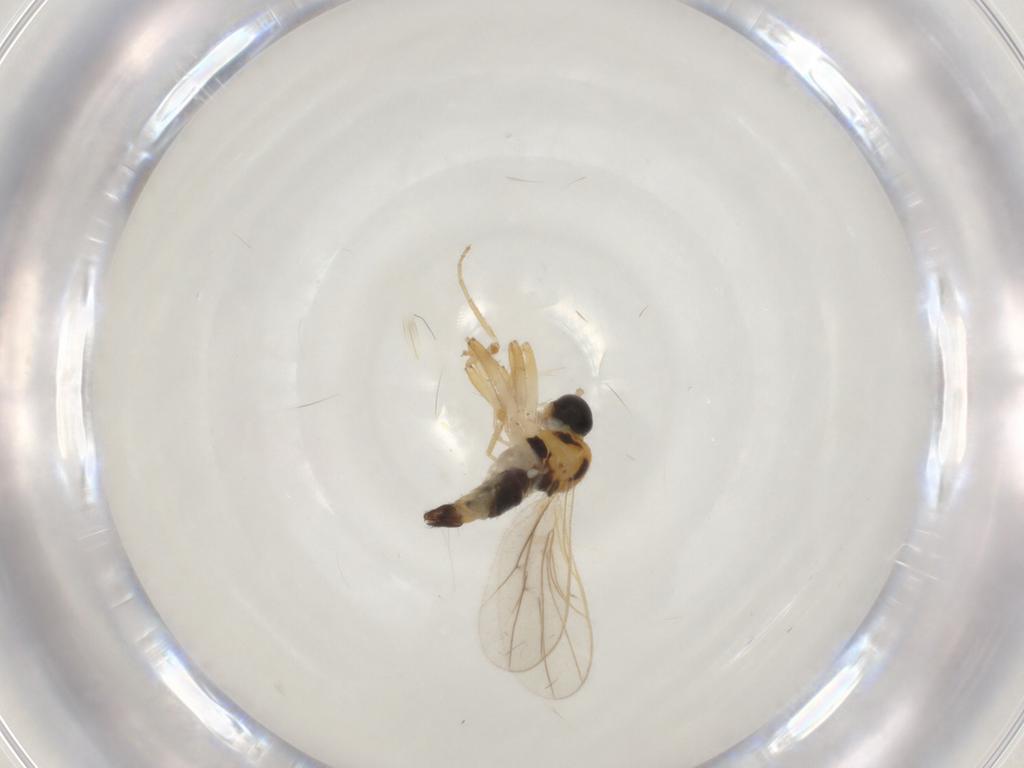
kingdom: Animalia
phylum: Arthropoda
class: Insecta
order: Diptera
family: Hybotidae
